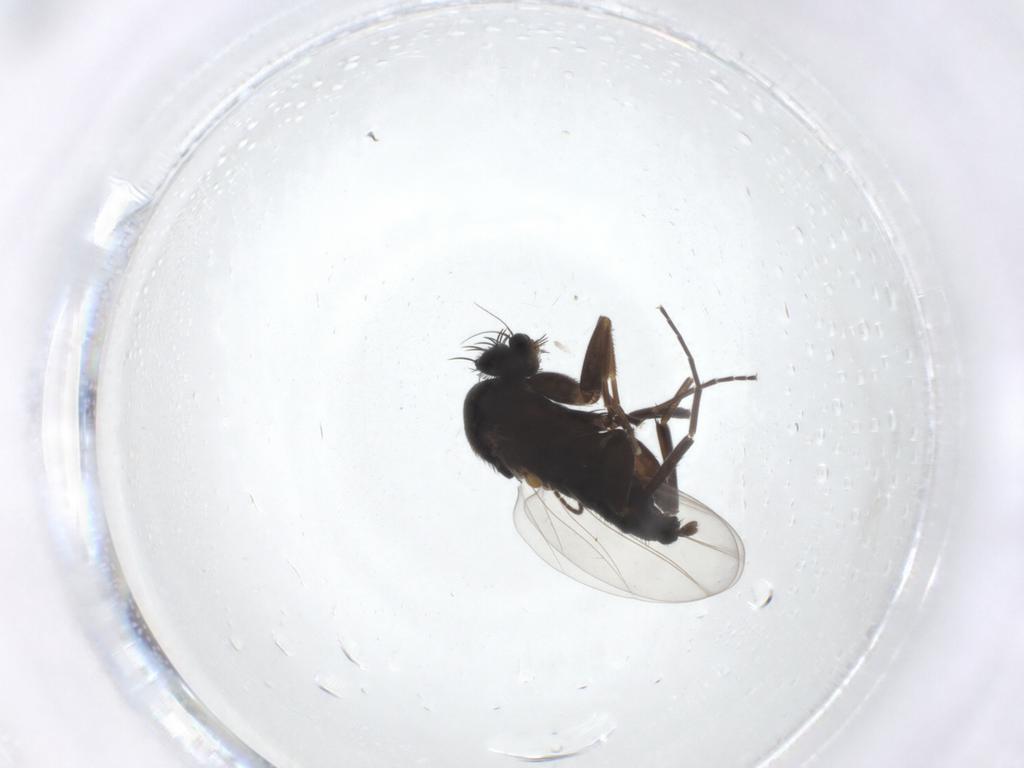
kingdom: Animalia
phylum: Arthropoda
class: Insecta
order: Diptera
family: Phoridae
